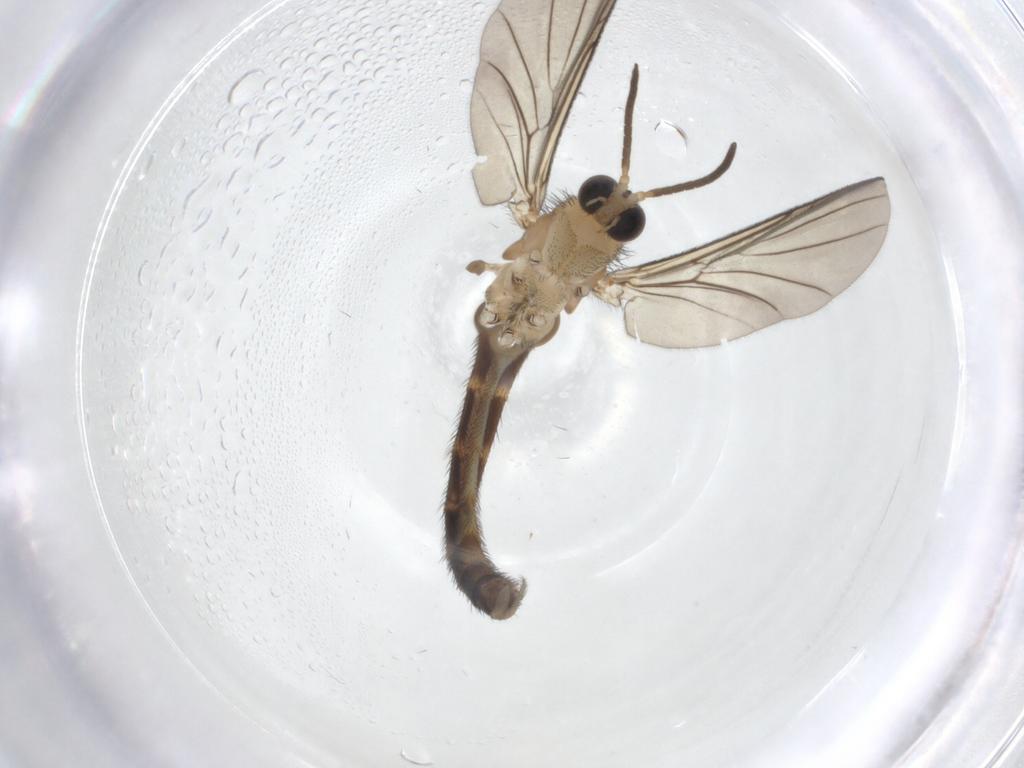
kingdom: Animalia
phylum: Arthropoda
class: Insecta
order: Diptera
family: Keroplatidae
